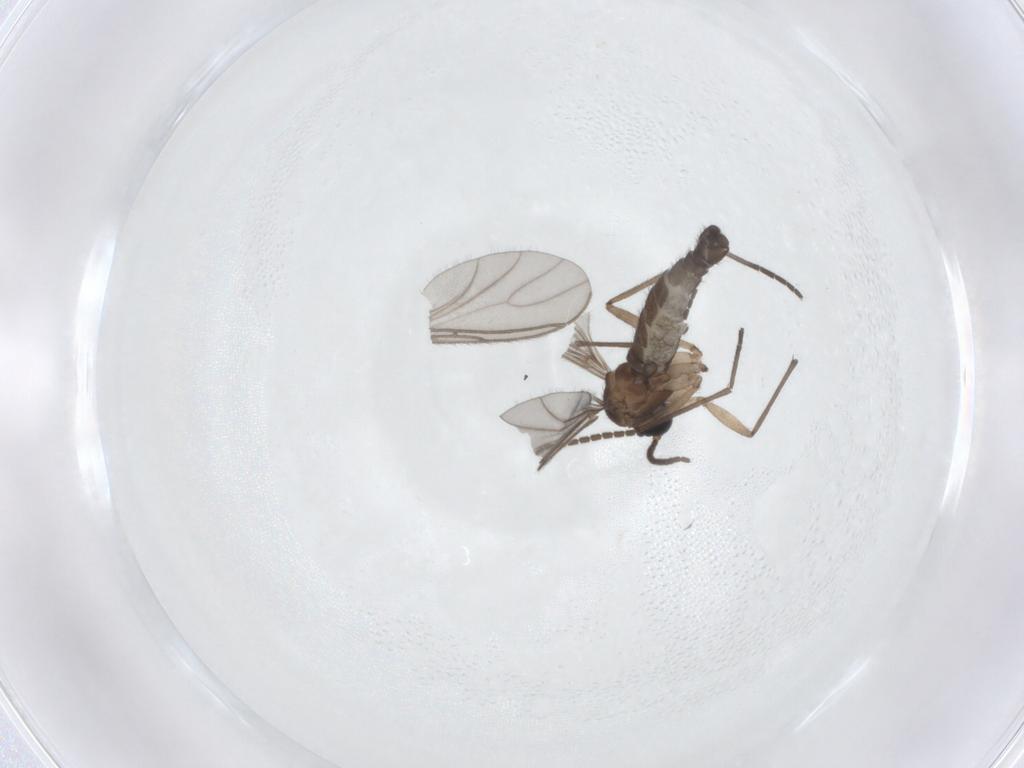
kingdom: Animalia
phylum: Arthropoda
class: Insecta
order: Diptera
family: Sciaridae
